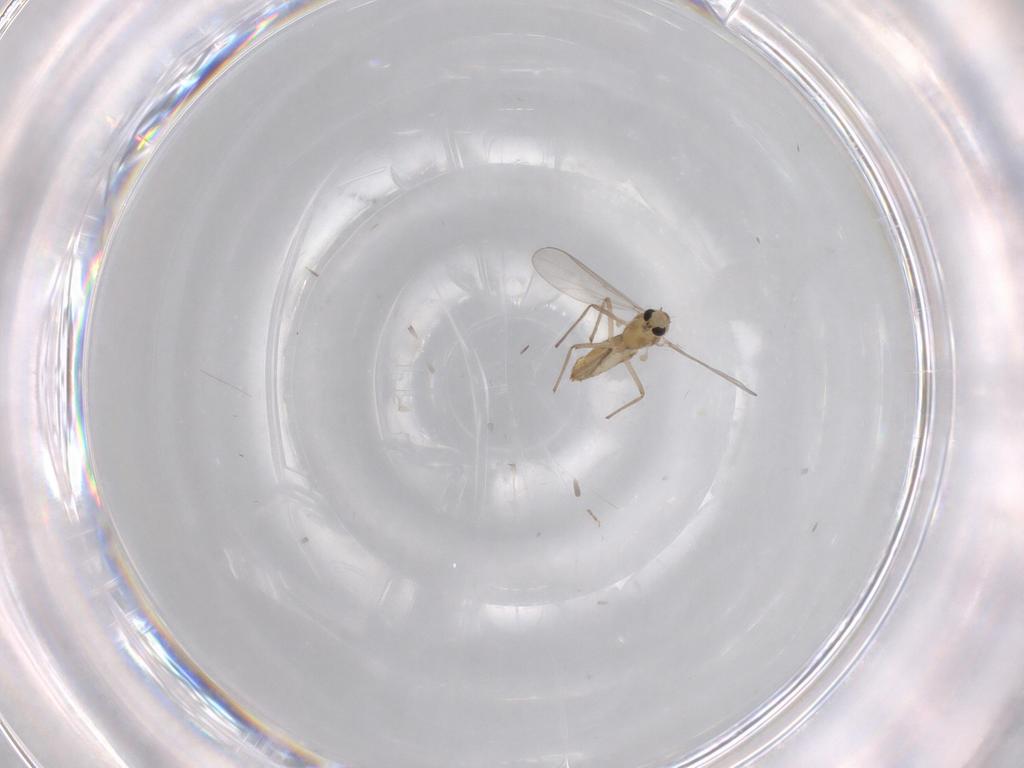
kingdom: Animalia
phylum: Arthropoda
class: Insecta
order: Diptera
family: Chironomidae
